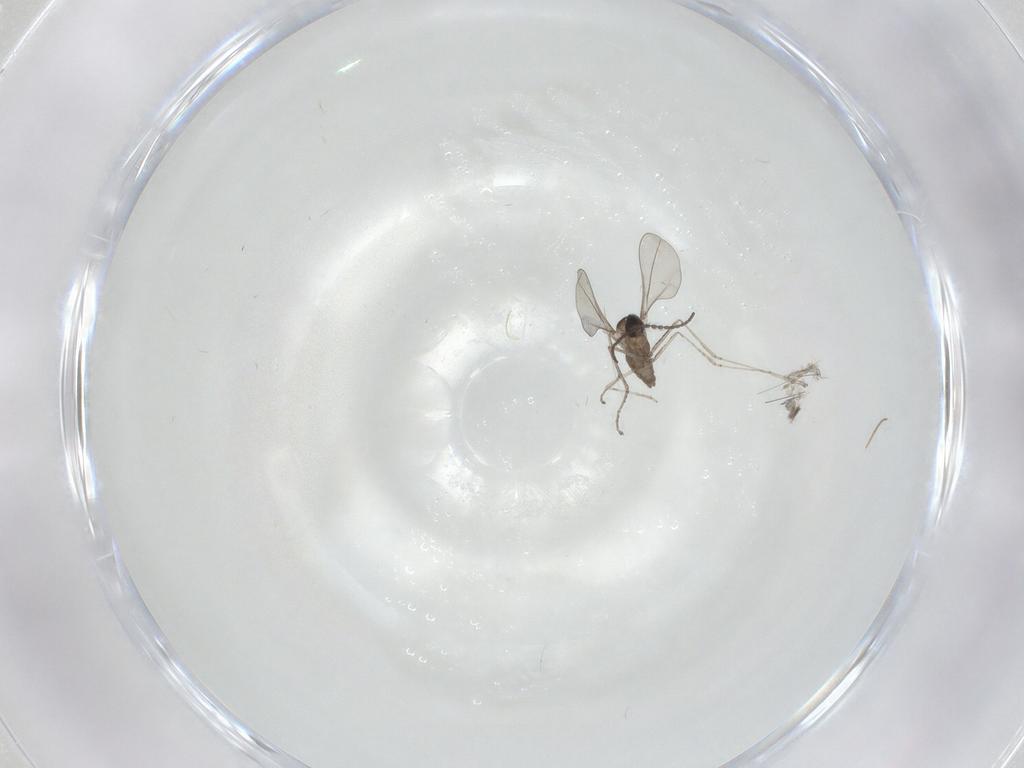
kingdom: Animalia
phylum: Arthropoda
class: Insecta
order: Diptera
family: Cecidomyiidae
